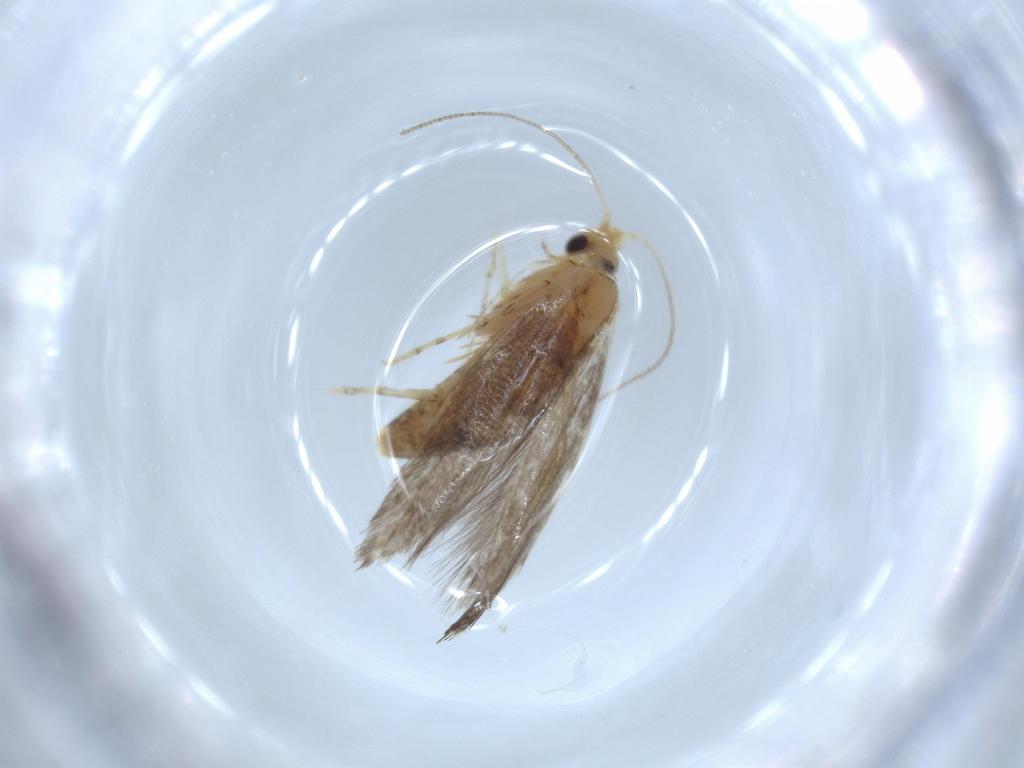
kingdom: Animalia
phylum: Arthropoda
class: Insecta
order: Lepidoptera
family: Argyresthiidae
